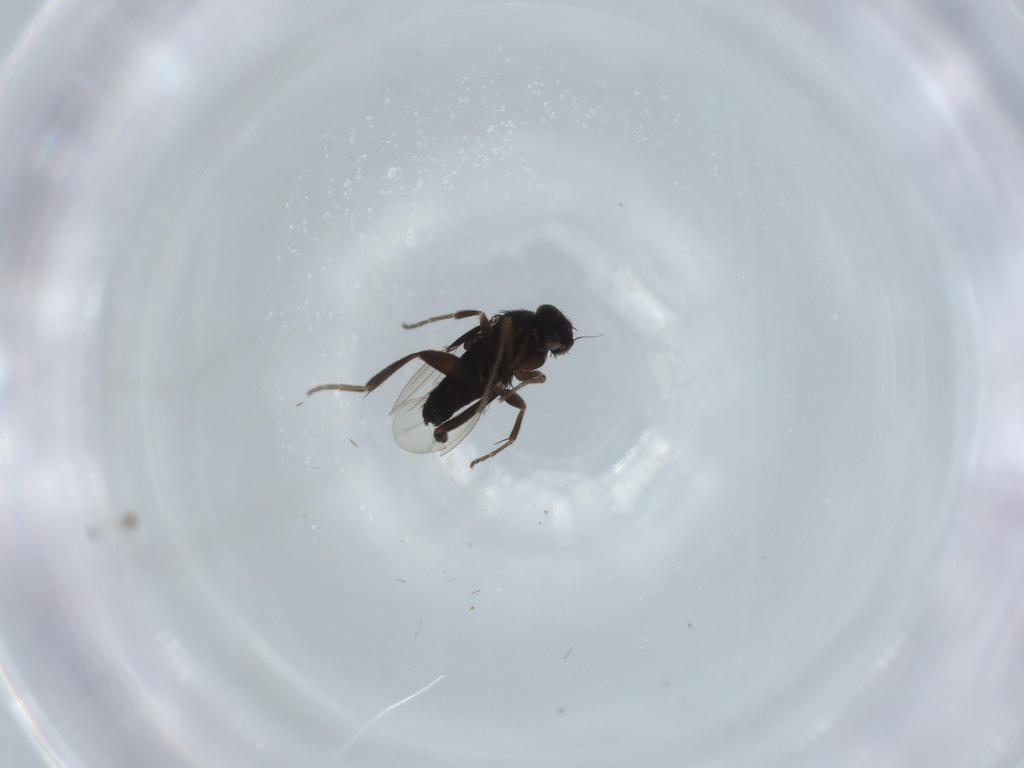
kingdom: Animalia
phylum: Arthropoda
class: Insecta
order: Diptera
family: Phoridae
